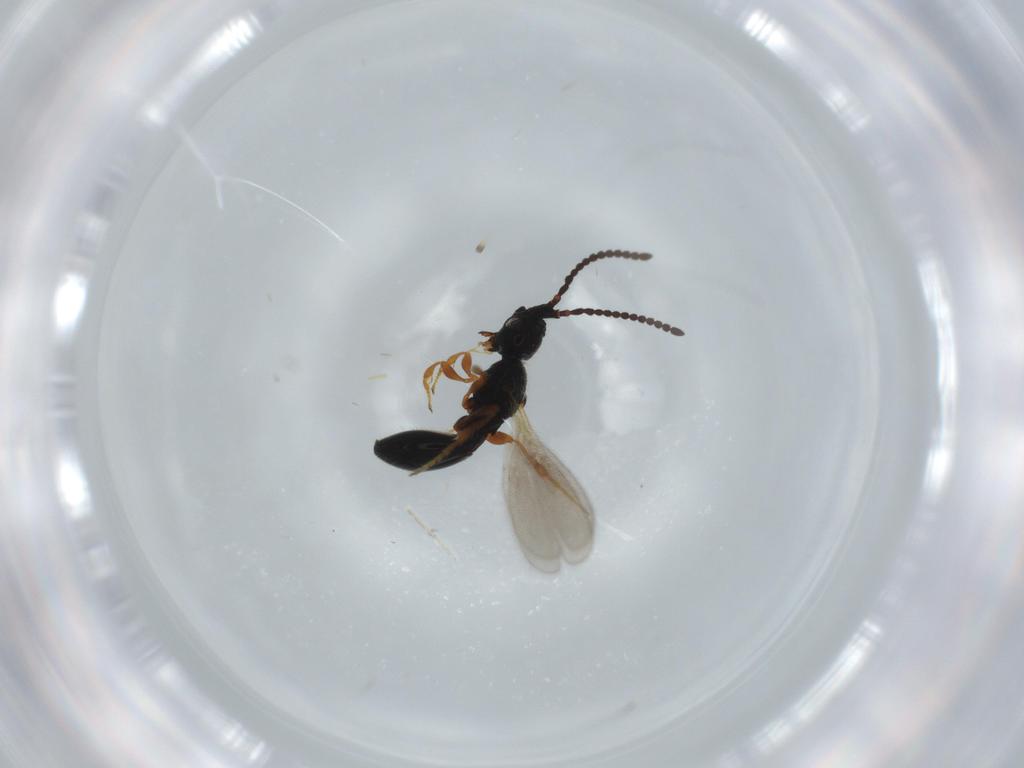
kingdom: Animalia
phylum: Arthropoda
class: Insecta
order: Hymenoptera
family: Diapriidae
